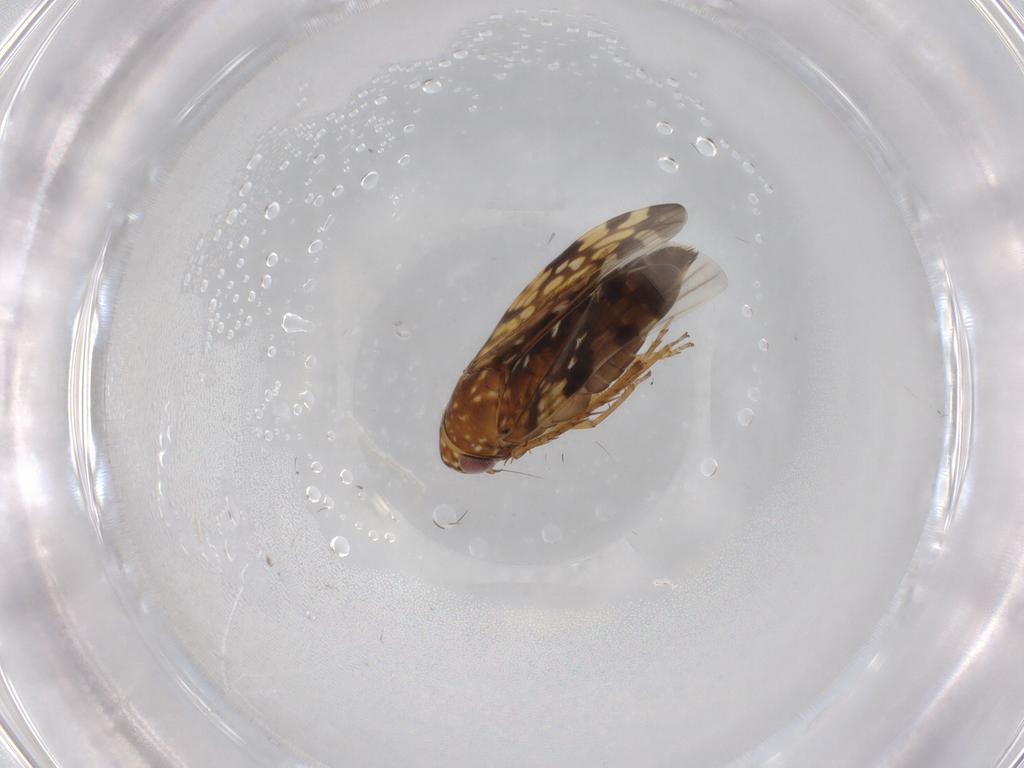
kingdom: Animalia
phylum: Arthropoda
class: Insecta
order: Hemiptera
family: Cicadellidae
